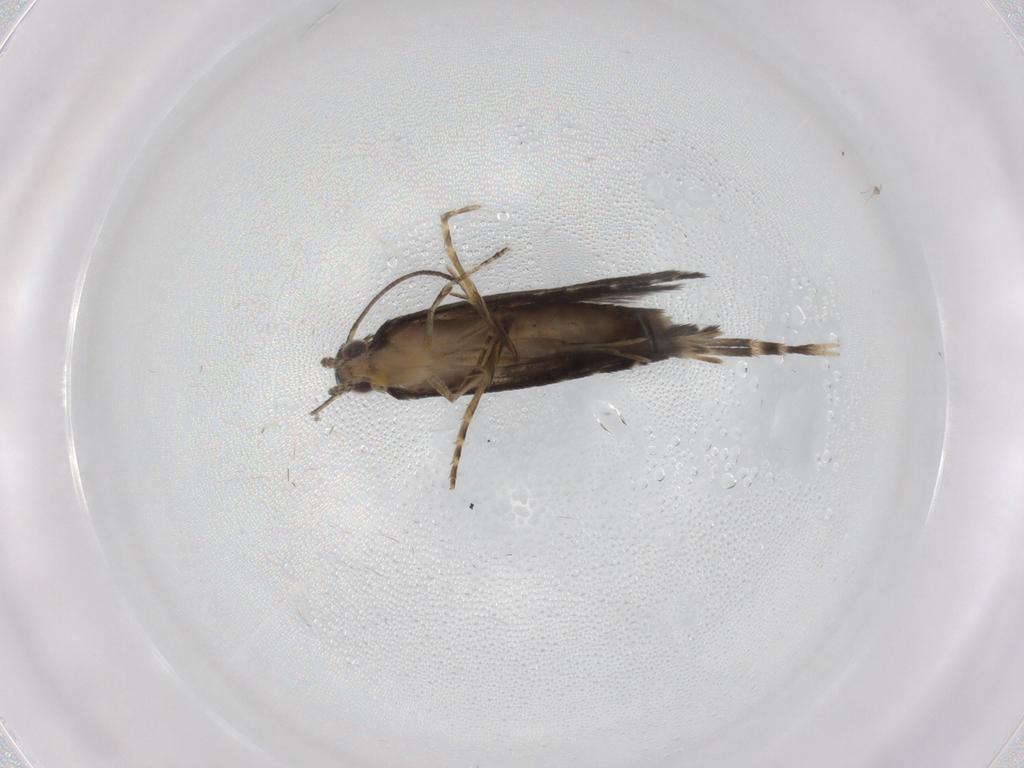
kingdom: Animalia
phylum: Arthropoda
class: Insecta
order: Lepidoptera
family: Glyphipterigidae
